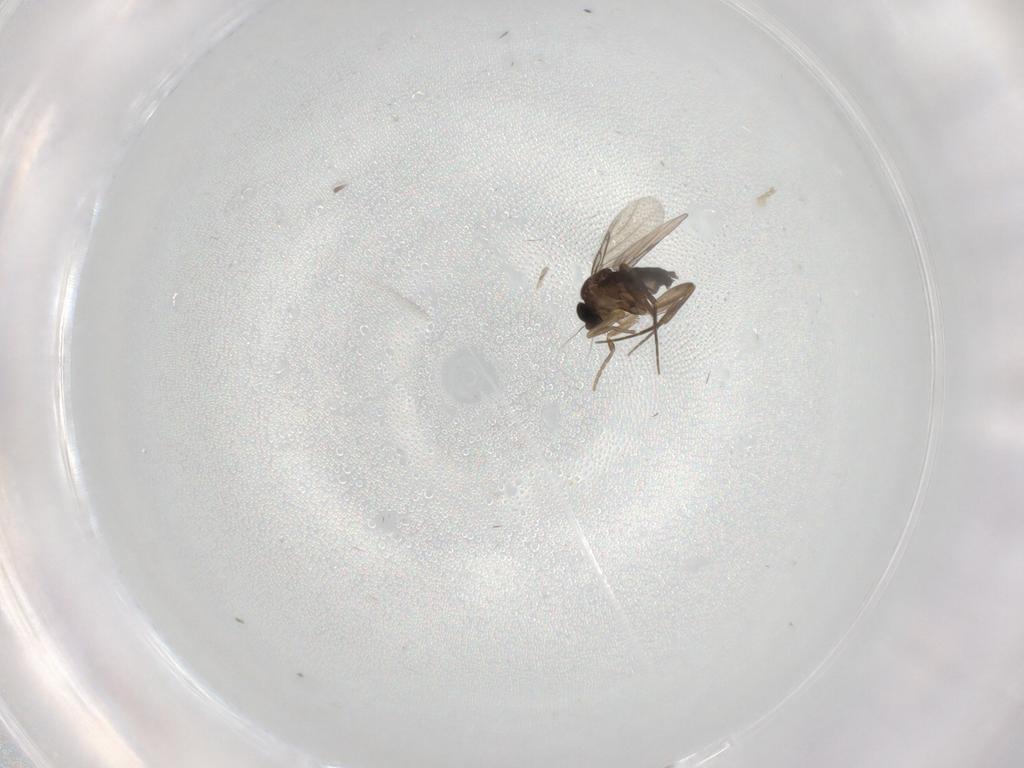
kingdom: Animalia
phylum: Arthropoda
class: Insecta
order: Diptera
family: Phoridae
